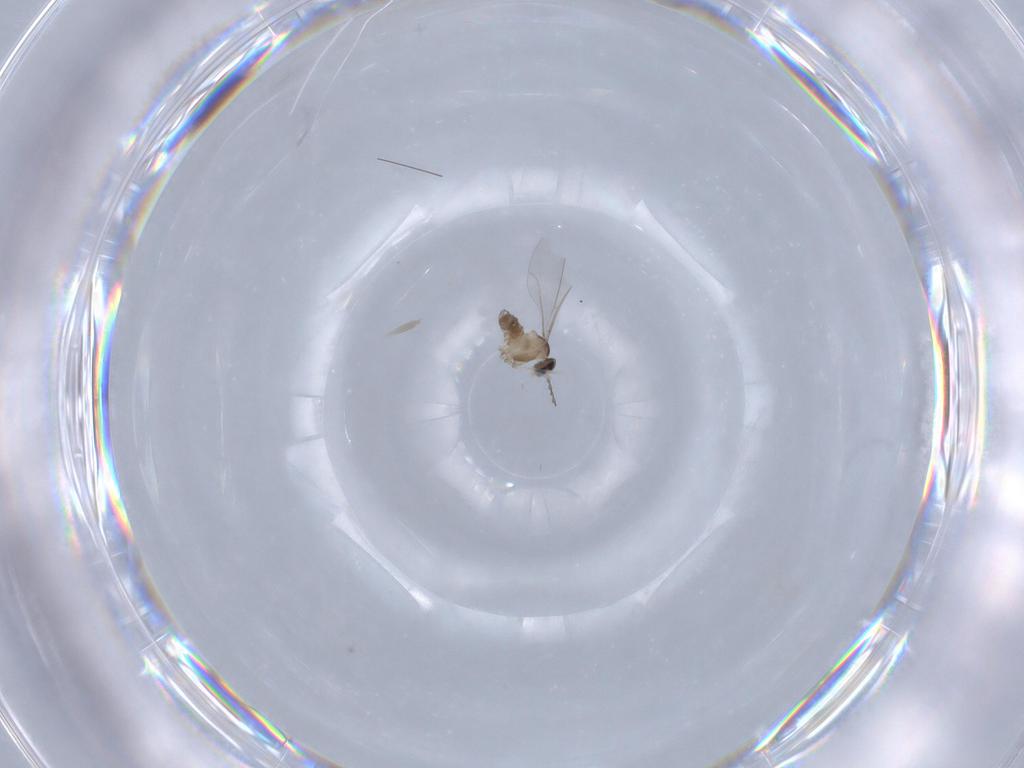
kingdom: Animalia
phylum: Arthropoda
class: Insecta
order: Diptera
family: Cecidomyiidae
